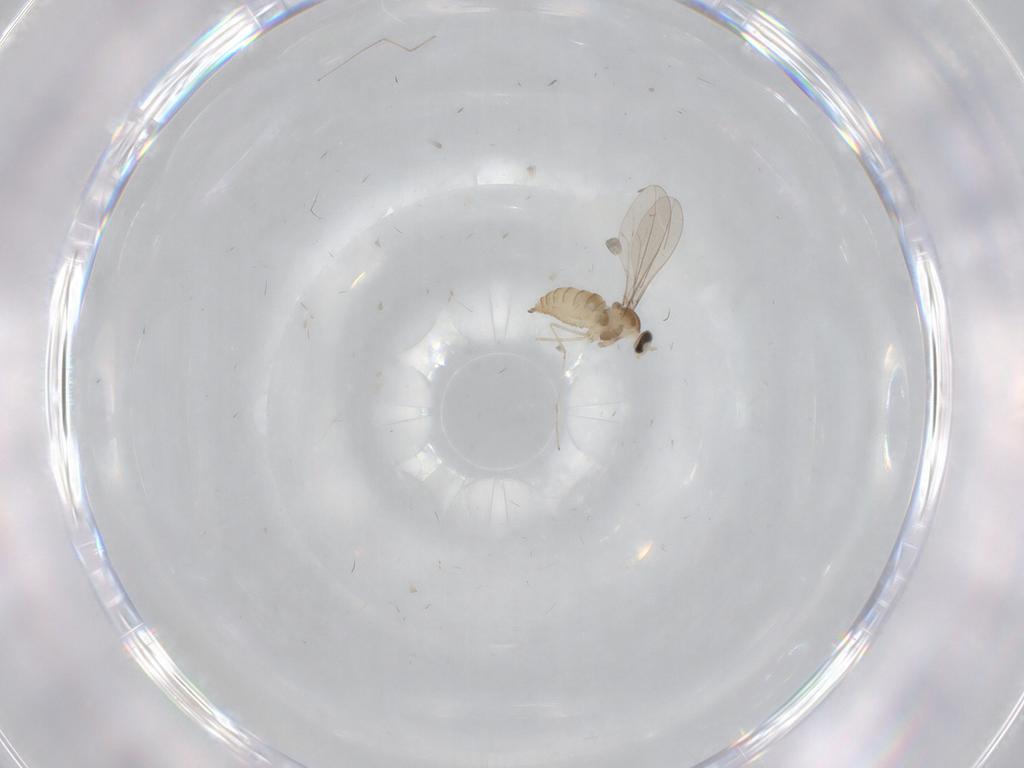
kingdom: Animalia
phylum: Arthropoda
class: Insecta
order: Diptera
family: Cecidomyiidae
